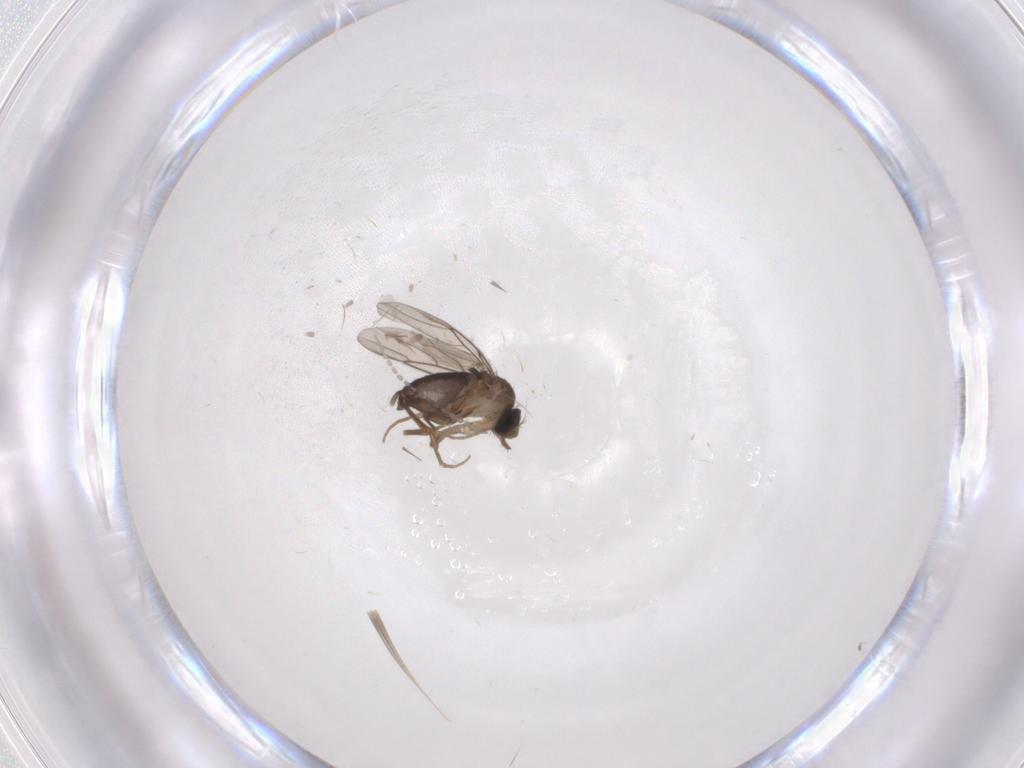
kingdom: Animalia
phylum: Arthropoda
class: Insecta
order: Diptera
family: Phoridae
